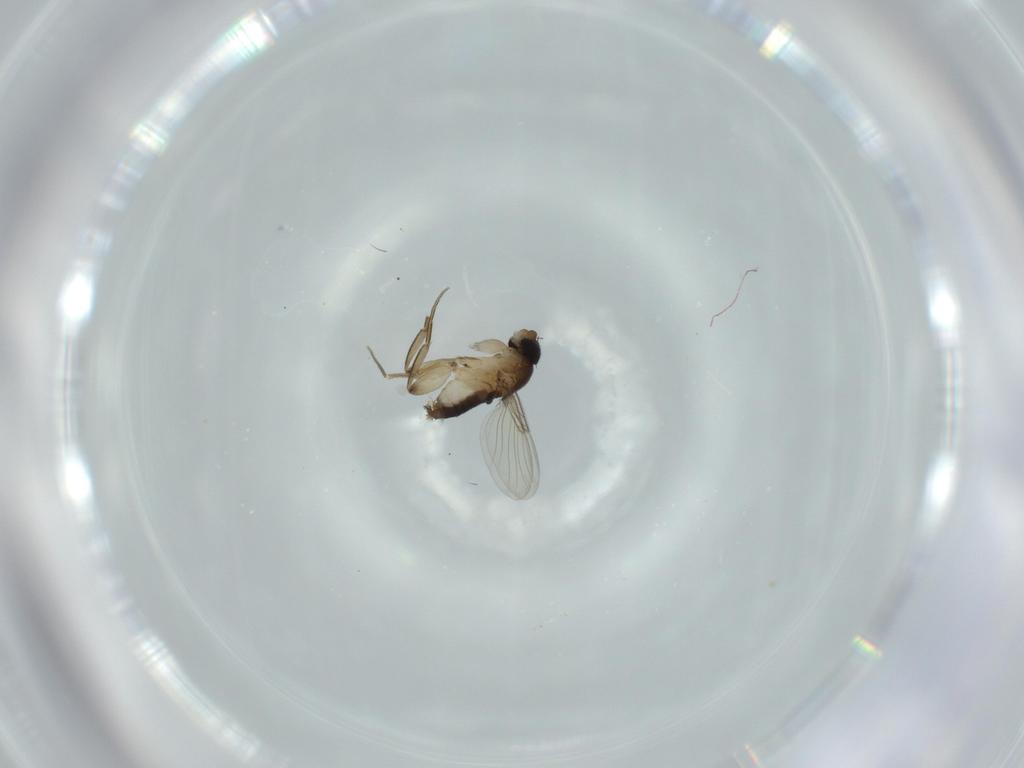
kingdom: Animalia
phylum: Arthropoda
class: Insecta
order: Diptera
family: Phoridae
